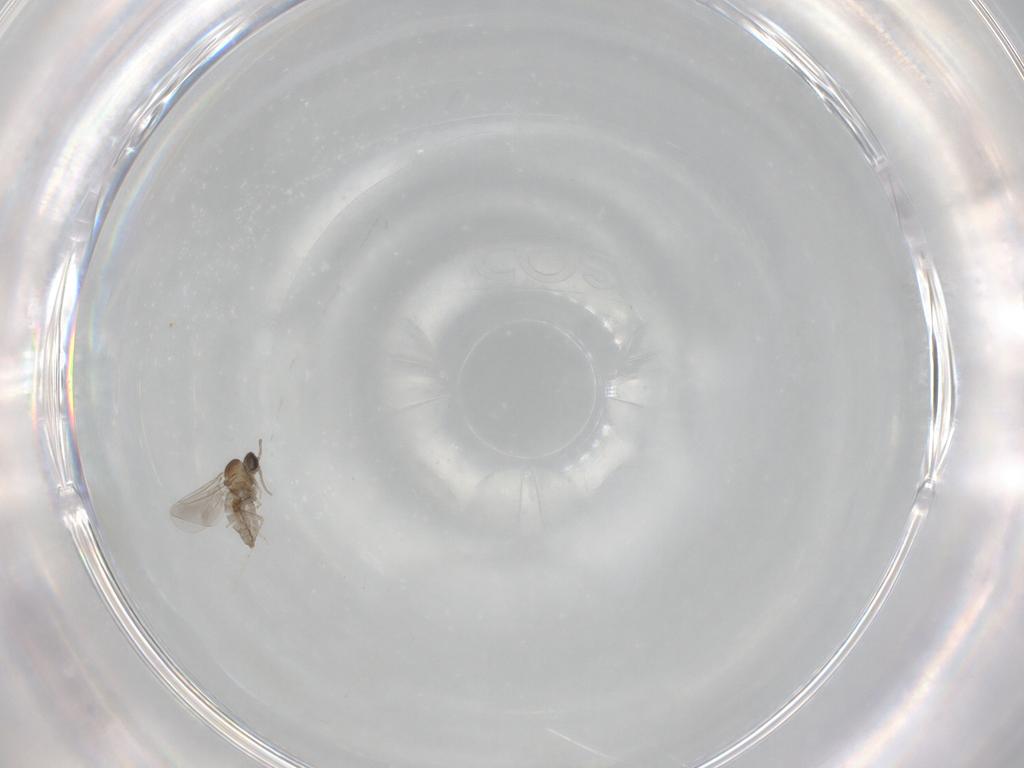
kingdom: Animalia
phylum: Arthropoda
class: Insecta
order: Diptera
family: Cecidomyiidae
